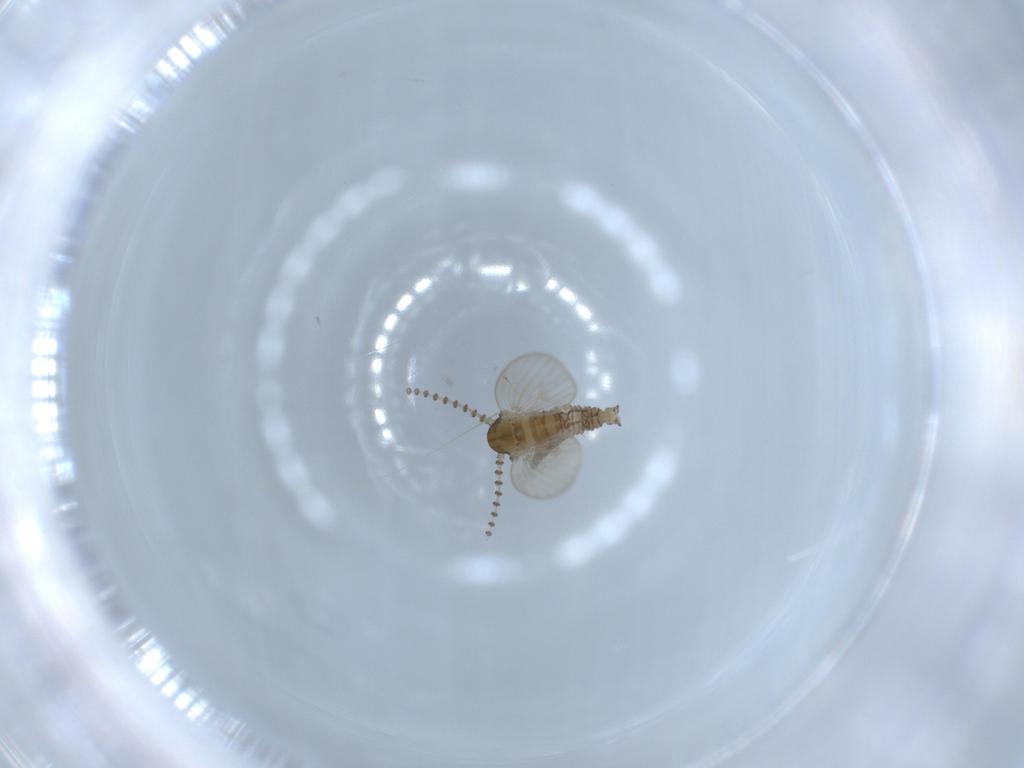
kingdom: Animalia
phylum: Arthropoda
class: Insecta
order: Diptera
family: Psychodidae
